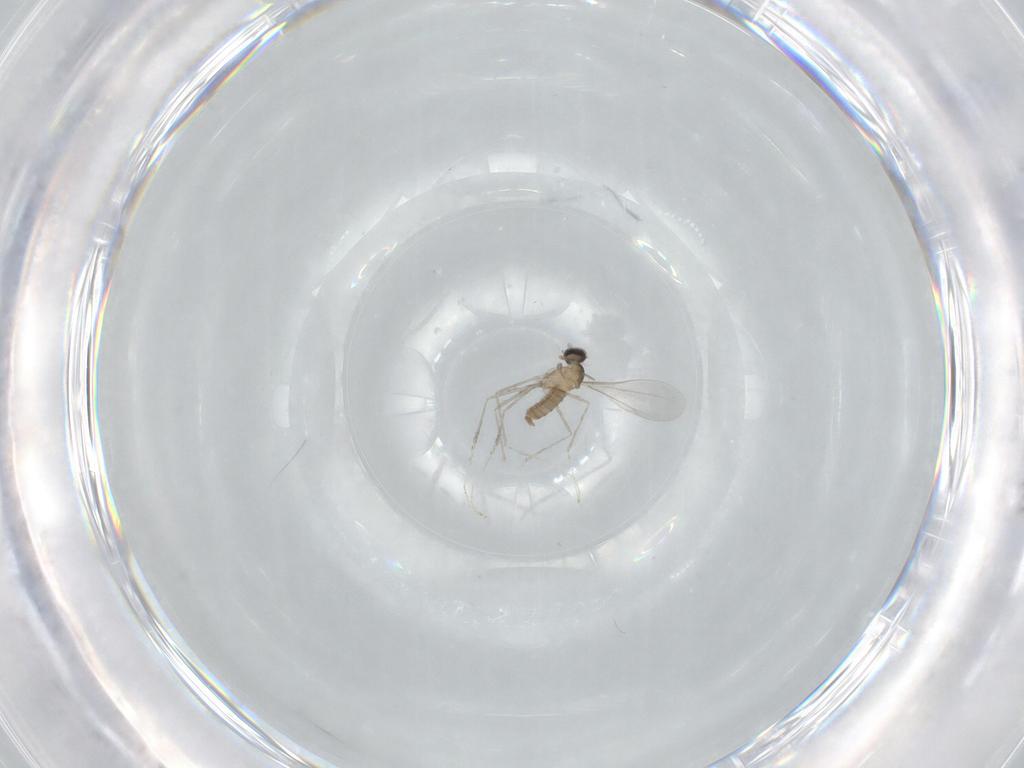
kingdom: Animalia
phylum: Arthropoda
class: Insecta
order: Diptera
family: Cecidomyiidae
